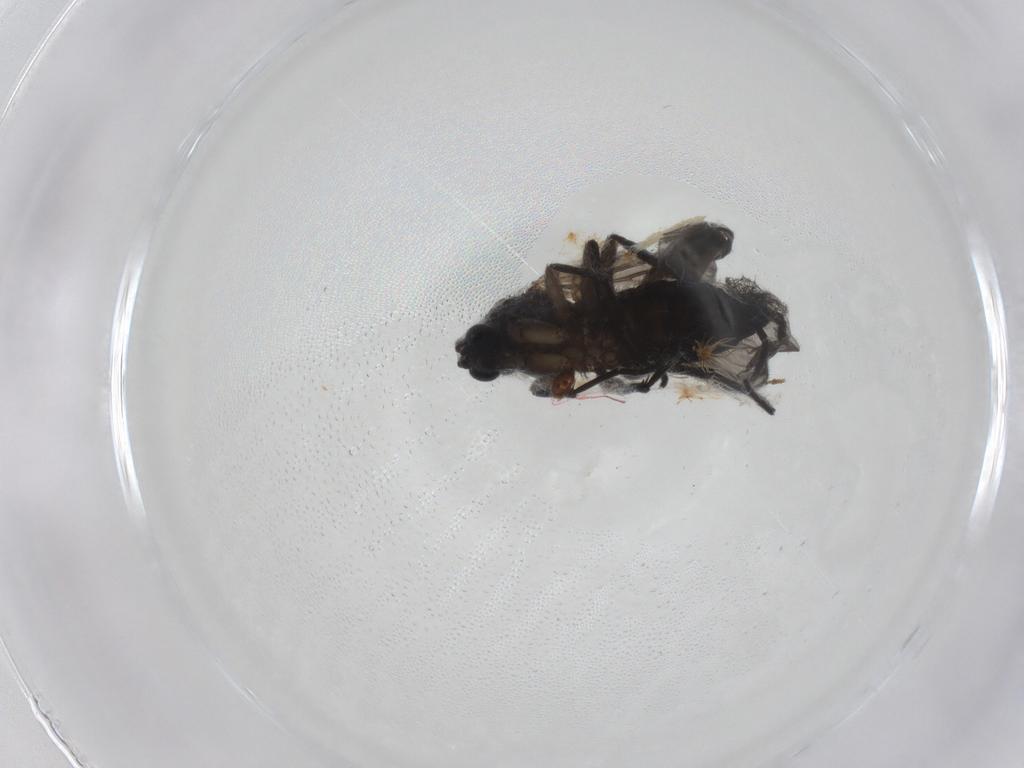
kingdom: Animalia
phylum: Arthropoda
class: Insecta
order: Diptera
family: Sciaridae
